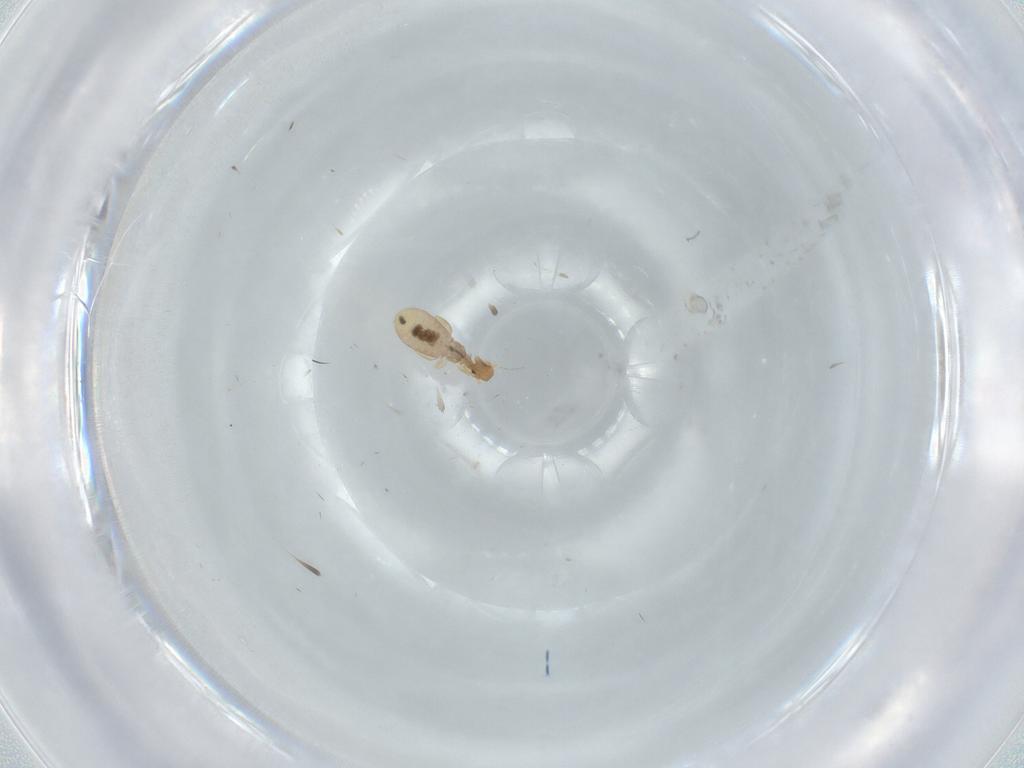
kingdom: Animalia
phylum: Arthropoda
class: Insecta
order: Psocodea
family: Liposcelididae
